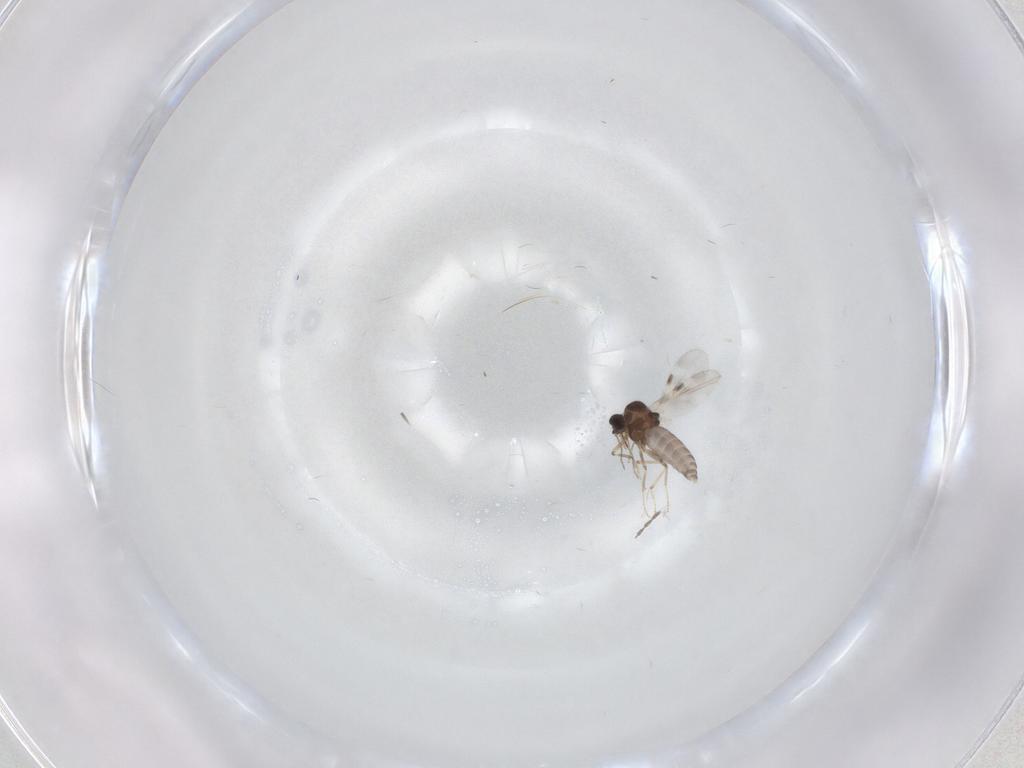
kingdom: Animalia
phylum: Arthropoda
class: Insecta
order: Diptera
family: Cecidomyiidae
